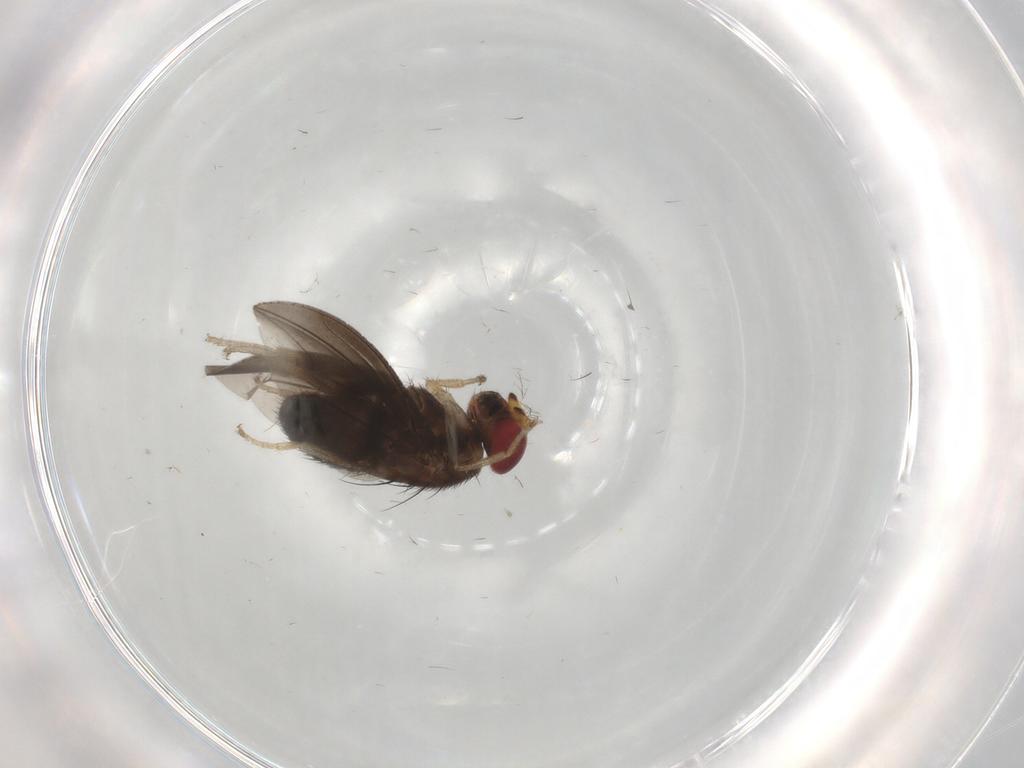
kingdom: Animalia
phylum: Arthropoda
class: Insecta
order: Diptera
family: Drosophilidae
